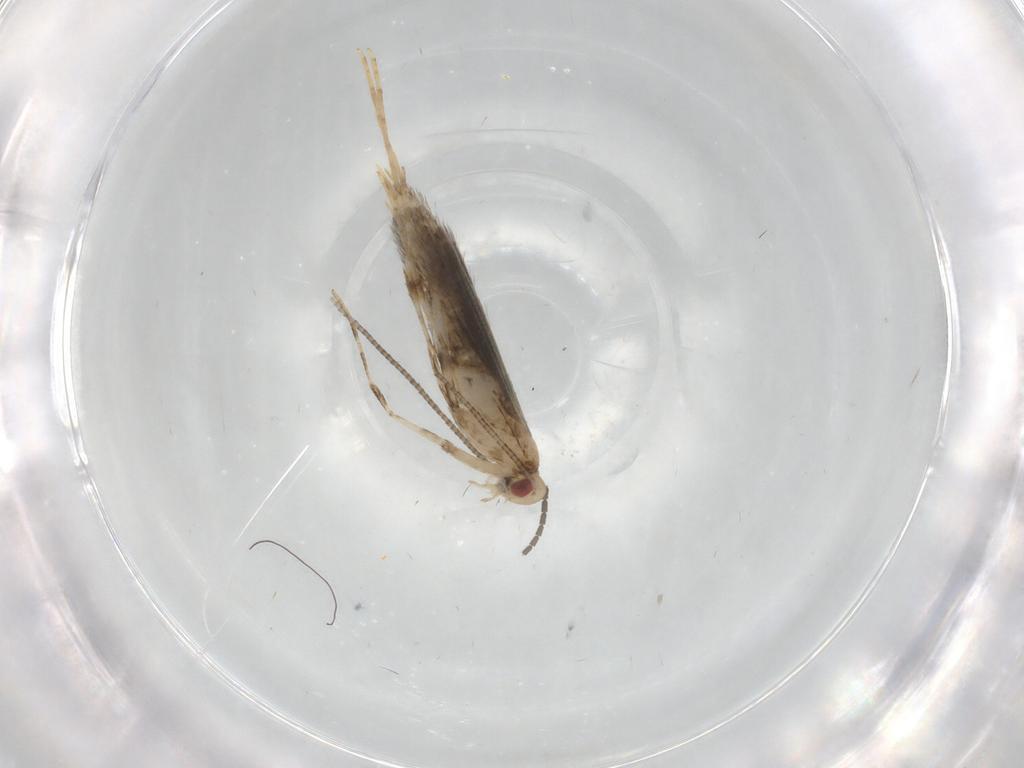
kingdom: Animalia
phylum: Arthropoda
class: Insecta
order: Lepidoptera
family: Gracillariidae
